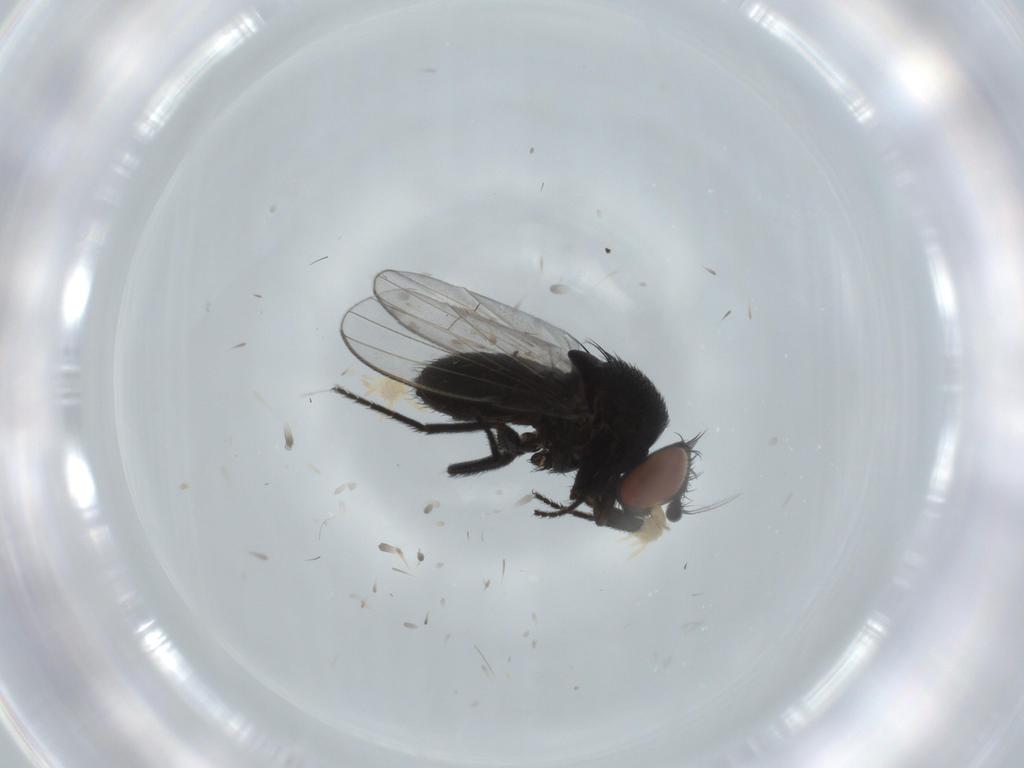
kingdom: Animalia
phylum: Arthropoda
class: Insecta
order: Diptera
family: Milichiidae
